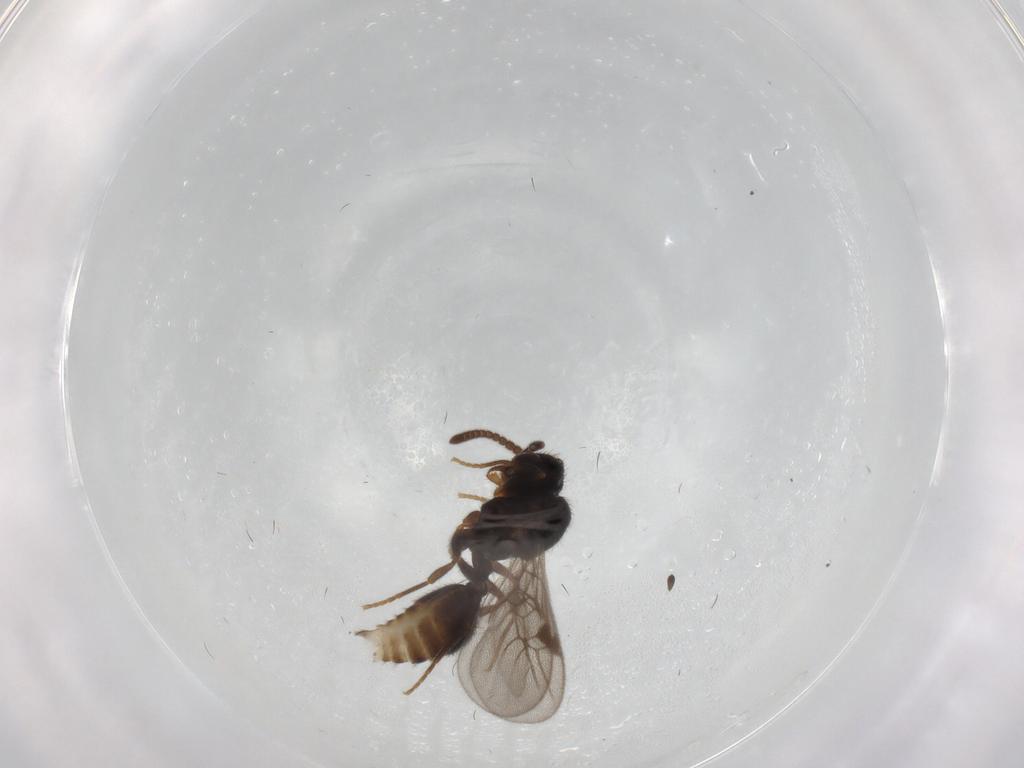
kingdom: Animalia
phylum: Arthropoda
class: Insecta
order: Hymenoptera
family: Formicidae
